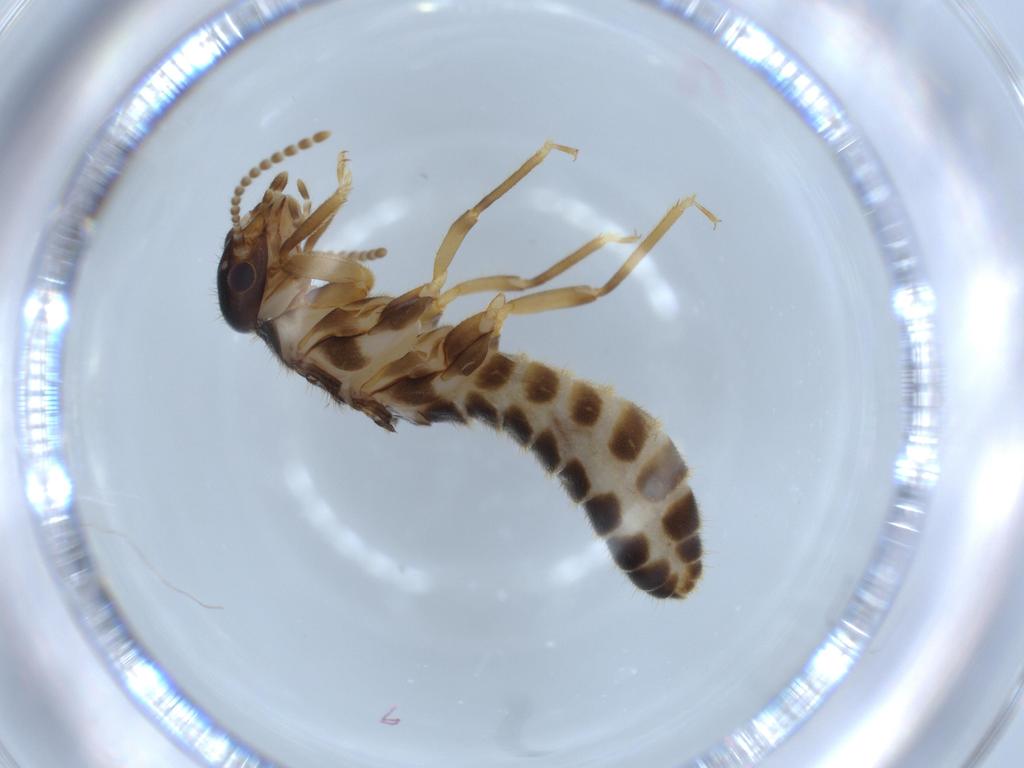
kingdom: Animalia
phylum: Arthropoda
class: Insecta
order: Blattodea
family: Termitidae
